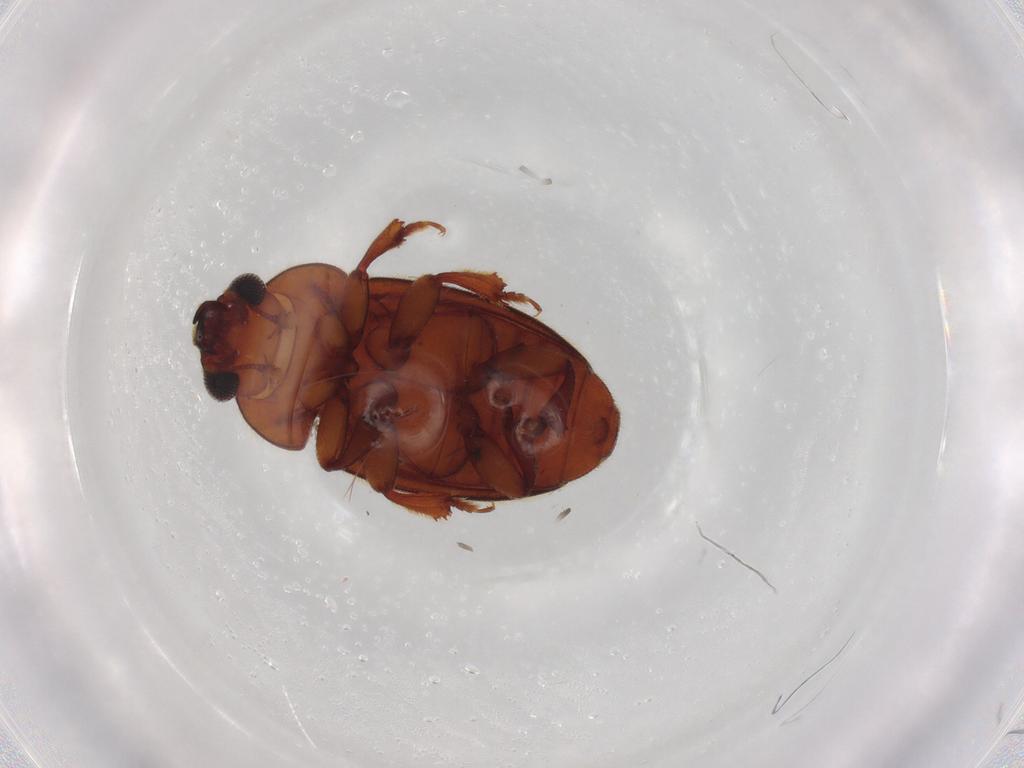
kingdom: Animalia
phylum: Arthropoda
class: Insecta
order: Coleoptera
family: Nitidulidae
